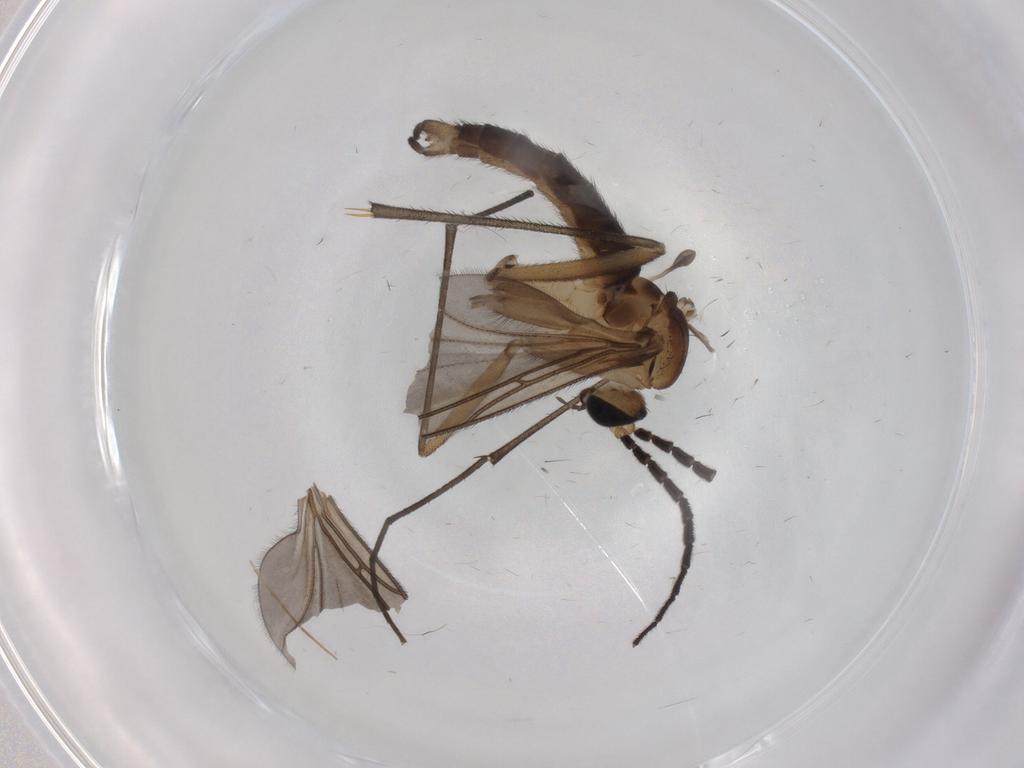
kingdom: Animalia
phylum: Arthropoda
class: Insecta
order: Diptera
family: Chironomidae
